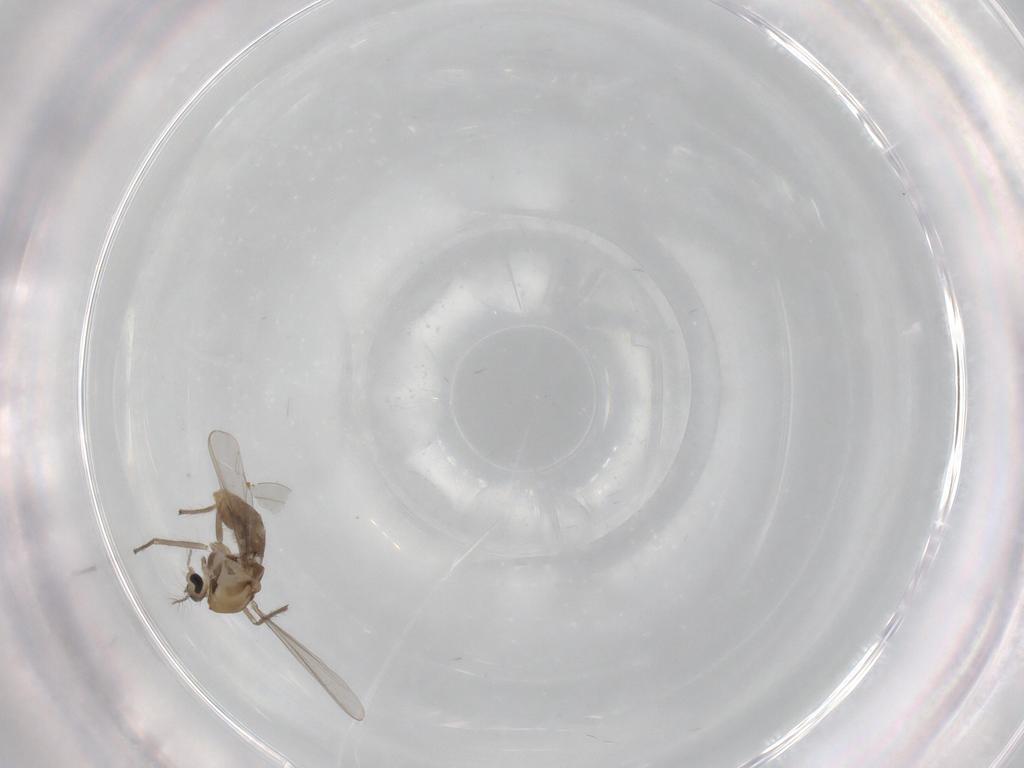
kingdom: Animalia
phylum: Arthropoda
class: Insecta
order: Diptera
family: Chironomidae
